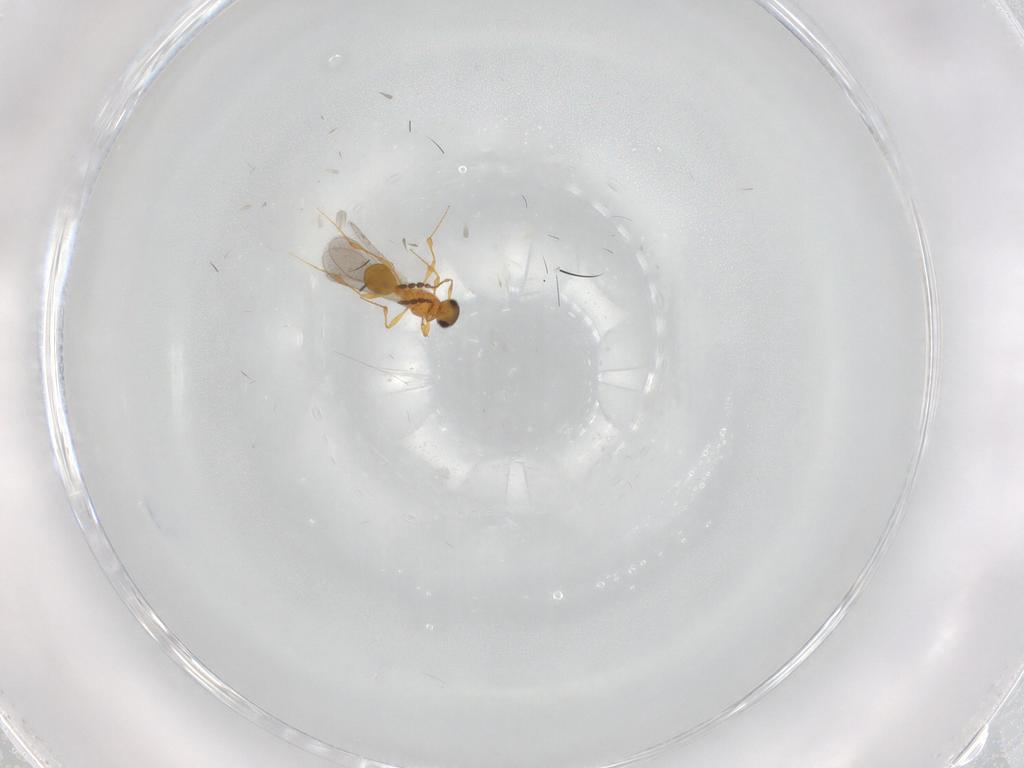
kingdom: Animalia
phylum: Arthropoda
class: Insecta
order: Hymenoptera
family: Platygastridae
